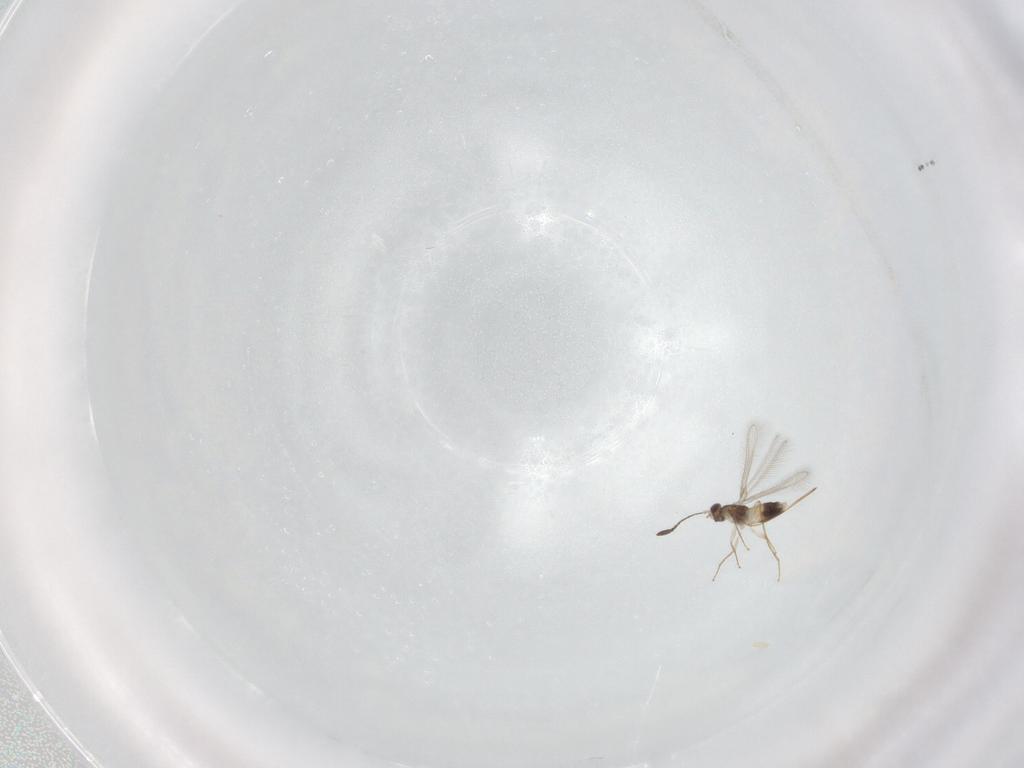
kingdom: Animalia
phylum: Arthropoda
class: Insecta
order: Hymenoptera
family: Mymaridae
